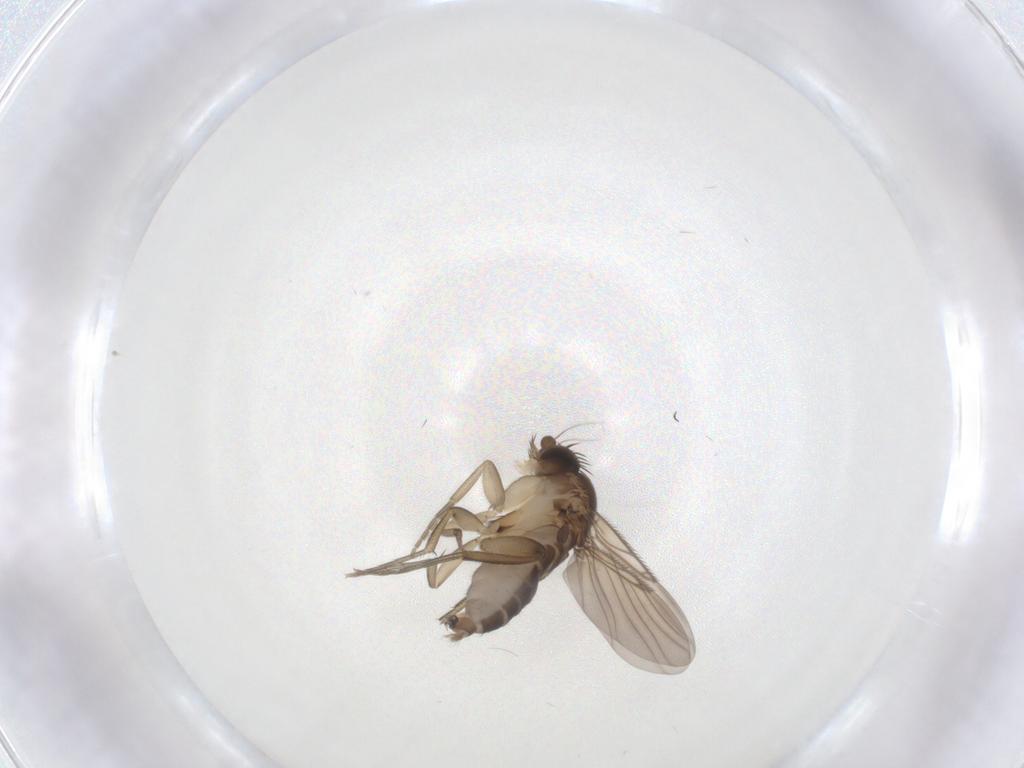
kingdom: Animalia
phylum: Arthropoda
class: Insecta
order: Diptera
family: Phoridae
